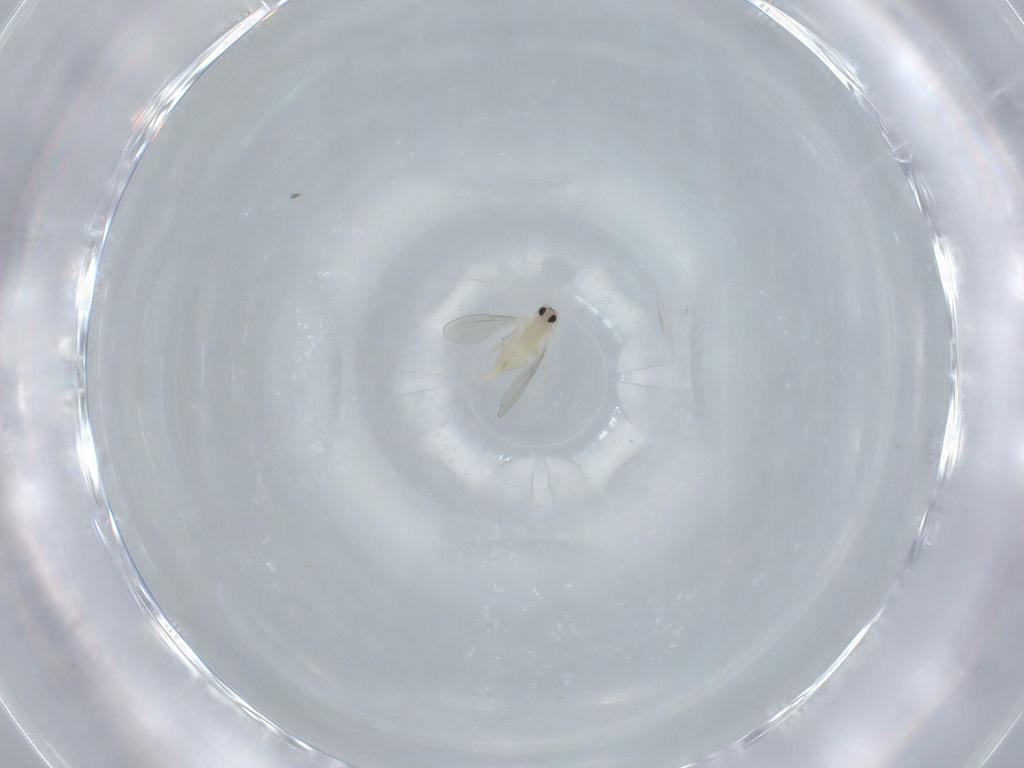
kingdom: Animalia
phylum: Arthropoda
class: Insecta
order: Diptera
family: Cecidomyiidae
